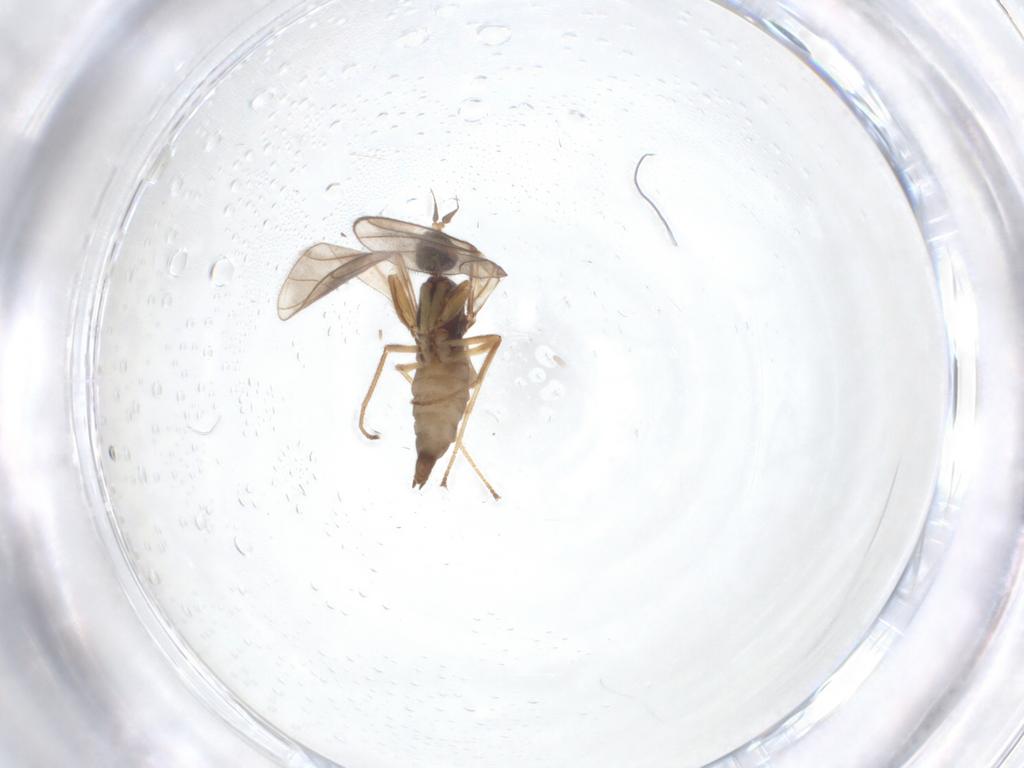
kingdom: Animalia
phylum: Arthropoda
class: Insecta
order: Diptera
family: Empididae
